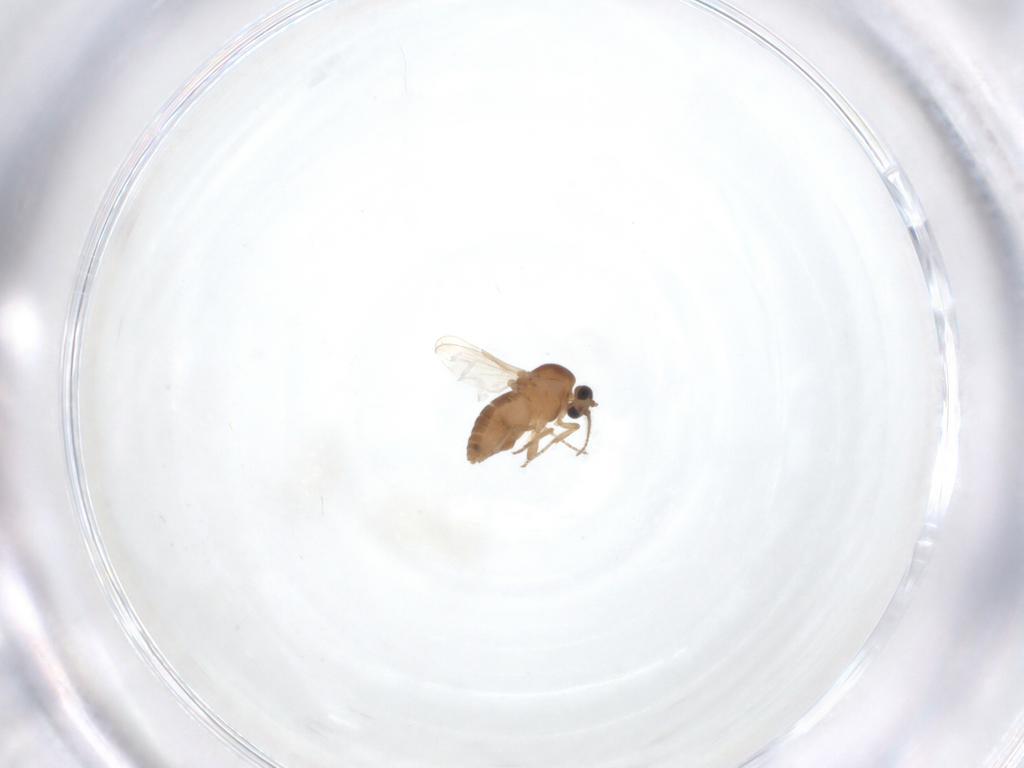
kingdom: Animalia
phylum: Arthropoda
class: Insecta
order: Diptera
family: Ceratopogonidae
